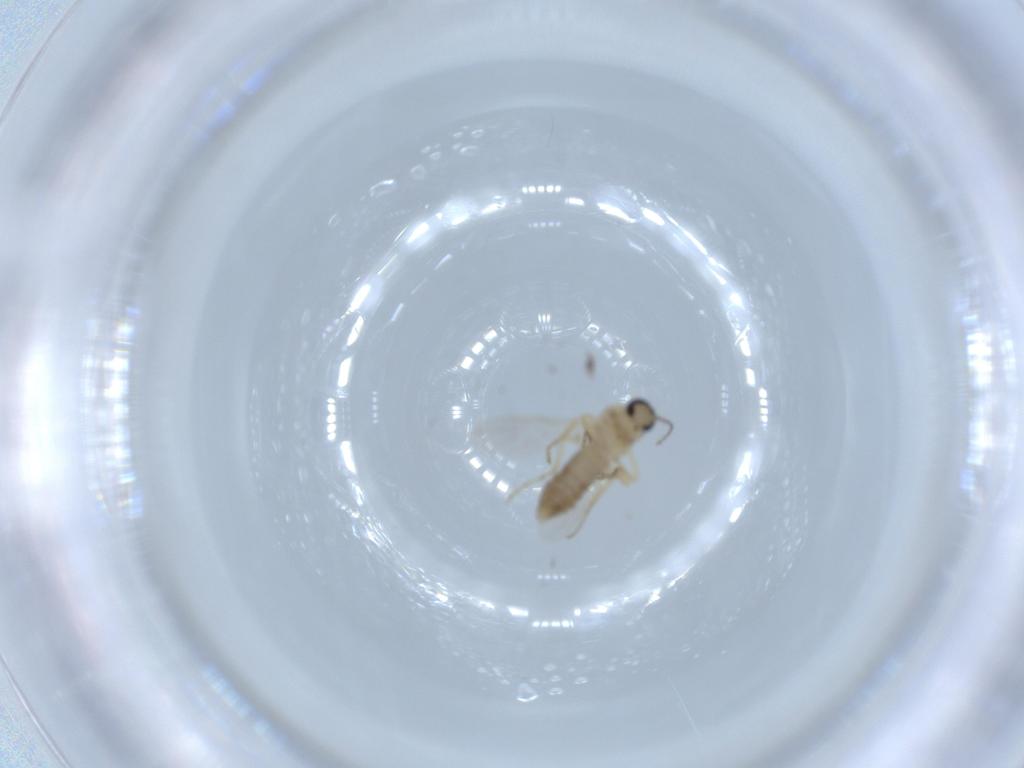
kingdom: Animalia
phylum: Arthropoda
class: Insecta
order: Diptera
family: Ceratopogonidae
